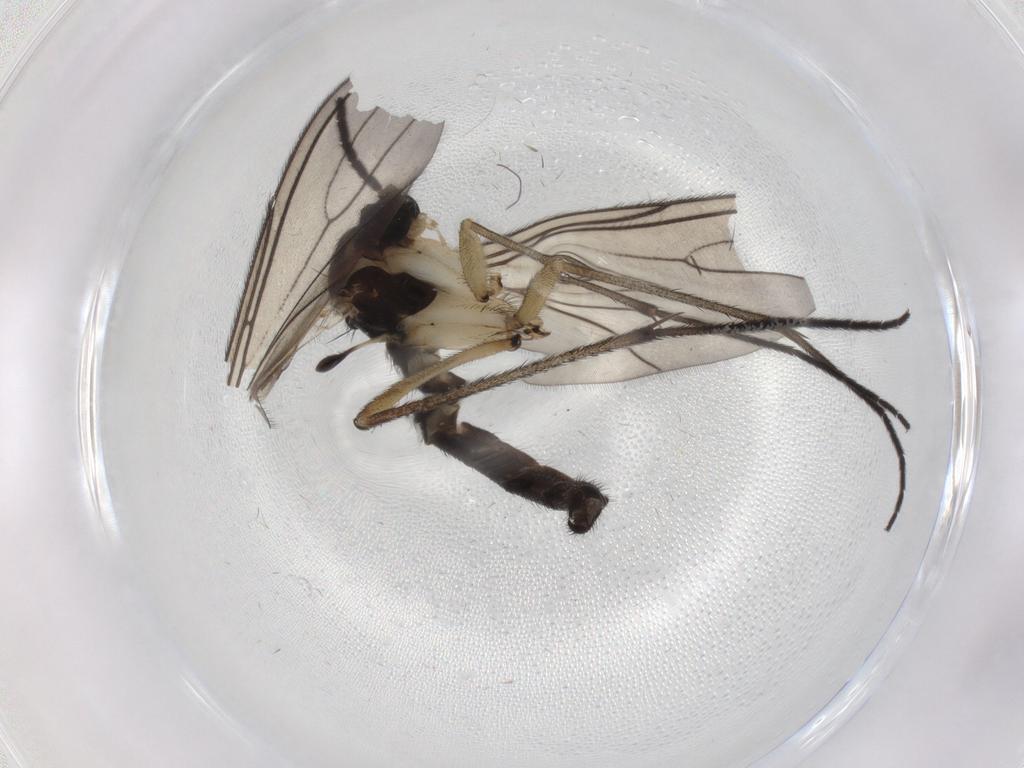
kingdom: Animalia
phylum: Arthropoda
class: Insecta
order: Diptera
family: Sciaridae
